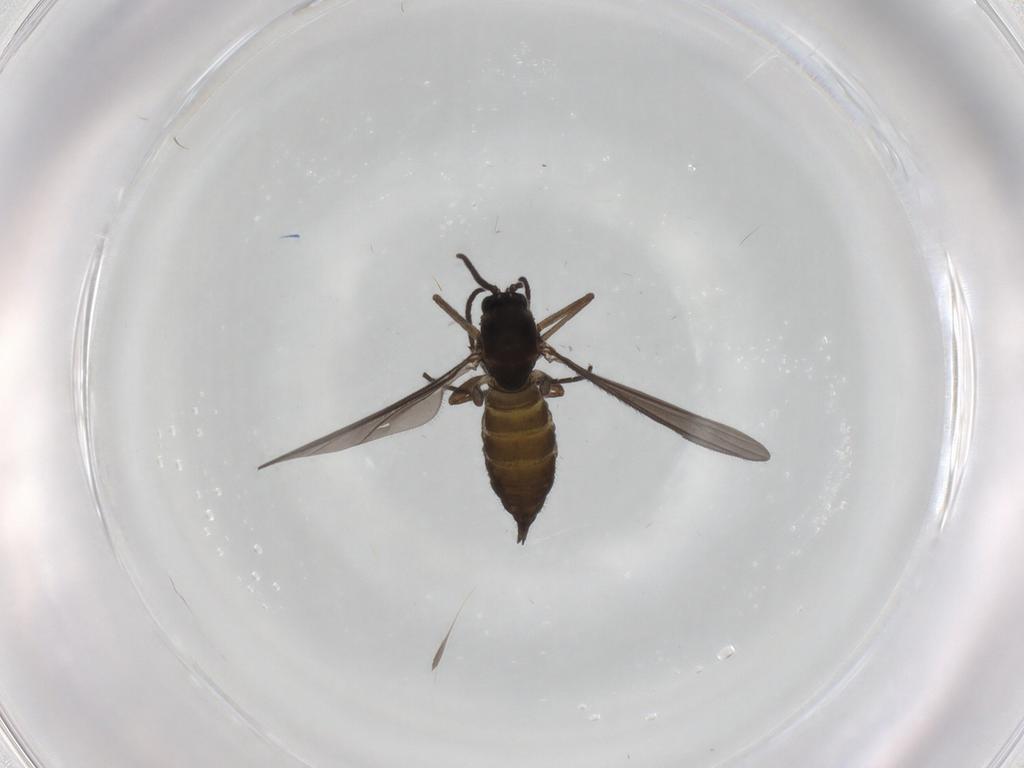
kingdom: Animalia
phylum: Arthropoda
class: Insecta
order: Diptera
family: Sciaridae
